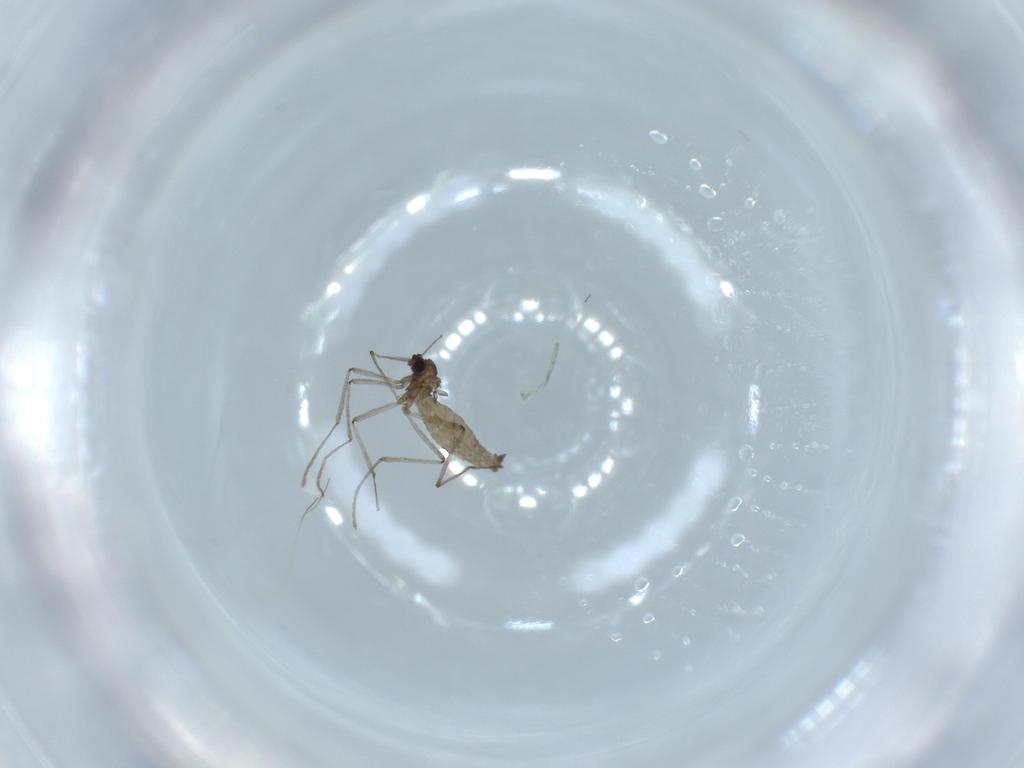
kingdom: Animalia
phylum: Arthropoda
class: Insecta
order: Diptera
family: Cecidomyiidae
